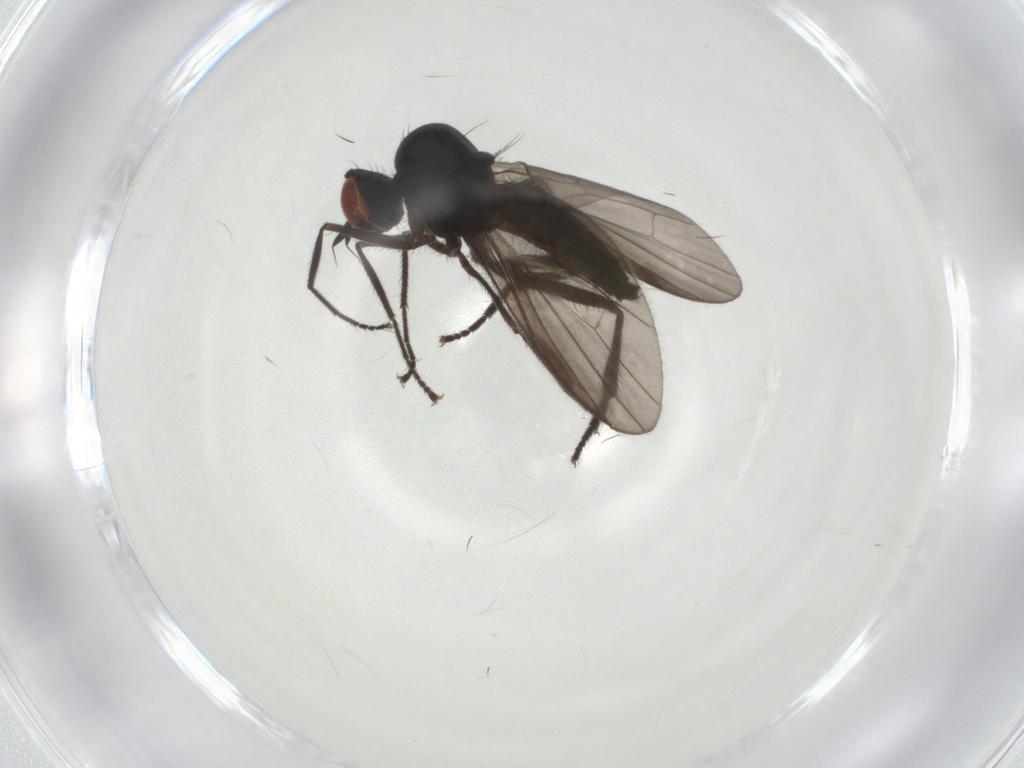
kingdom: Animalia
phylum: Arthropoda
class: Insecta
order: Diptera
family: Hybotidae
